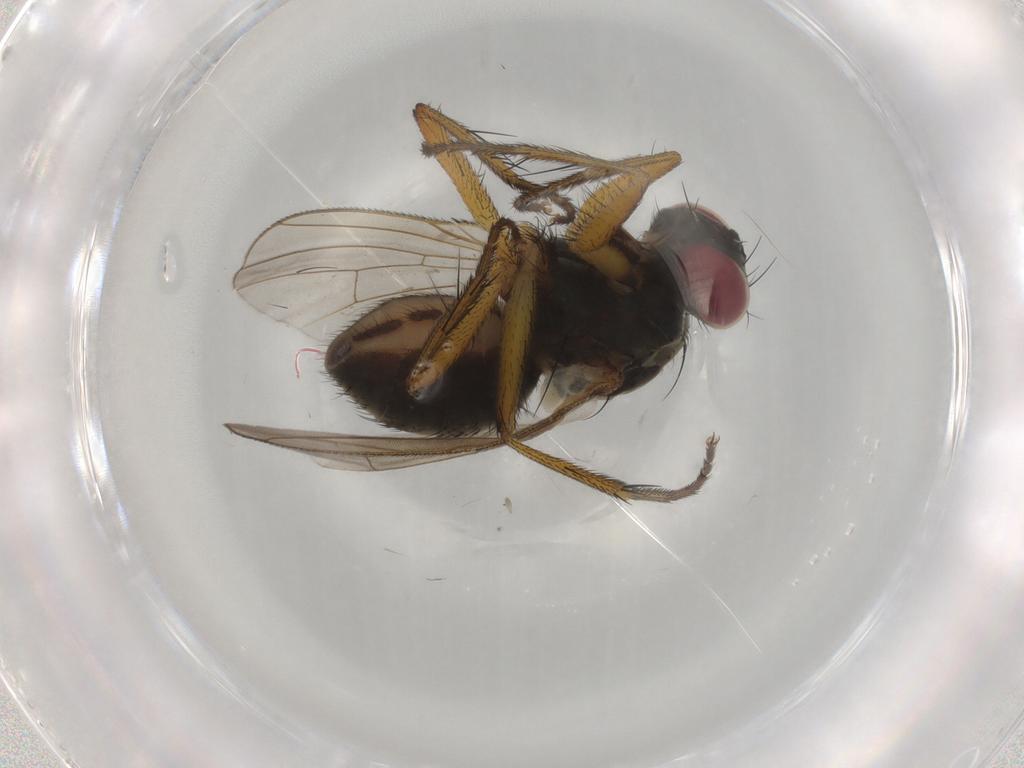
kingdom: Animalia
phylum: Arthropoda
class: Insecta
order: Diptera
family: Muscidae
